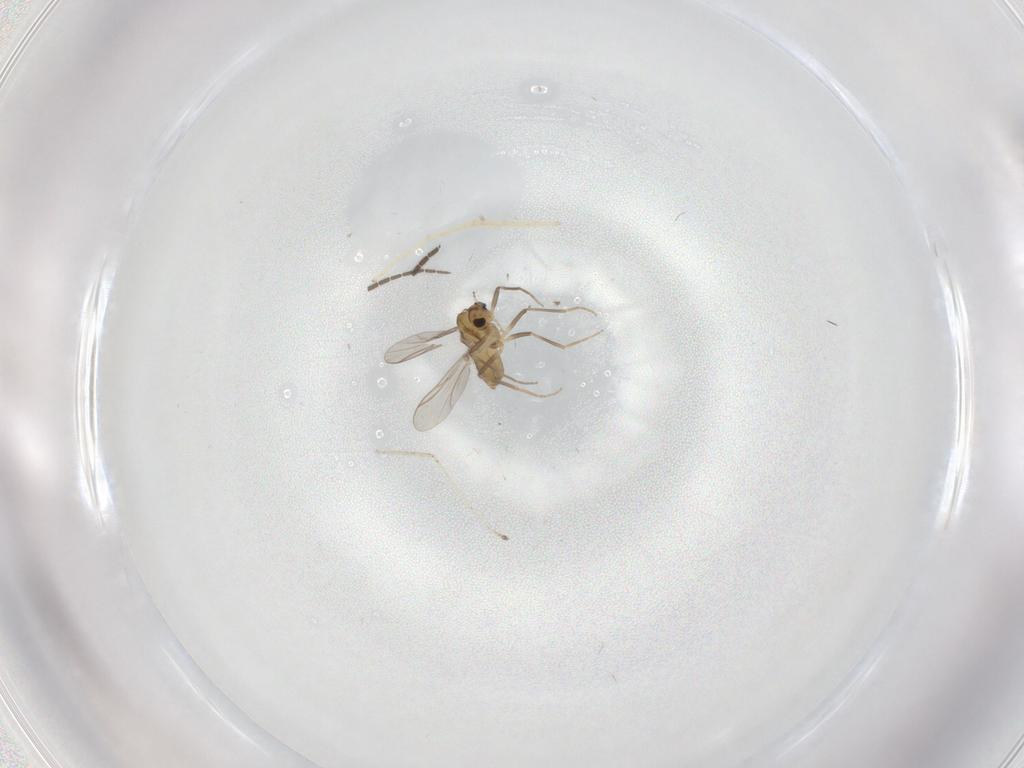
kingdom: Animalia
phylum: Arthropoda
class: Insecta
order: Diptera
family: Chironomidae
